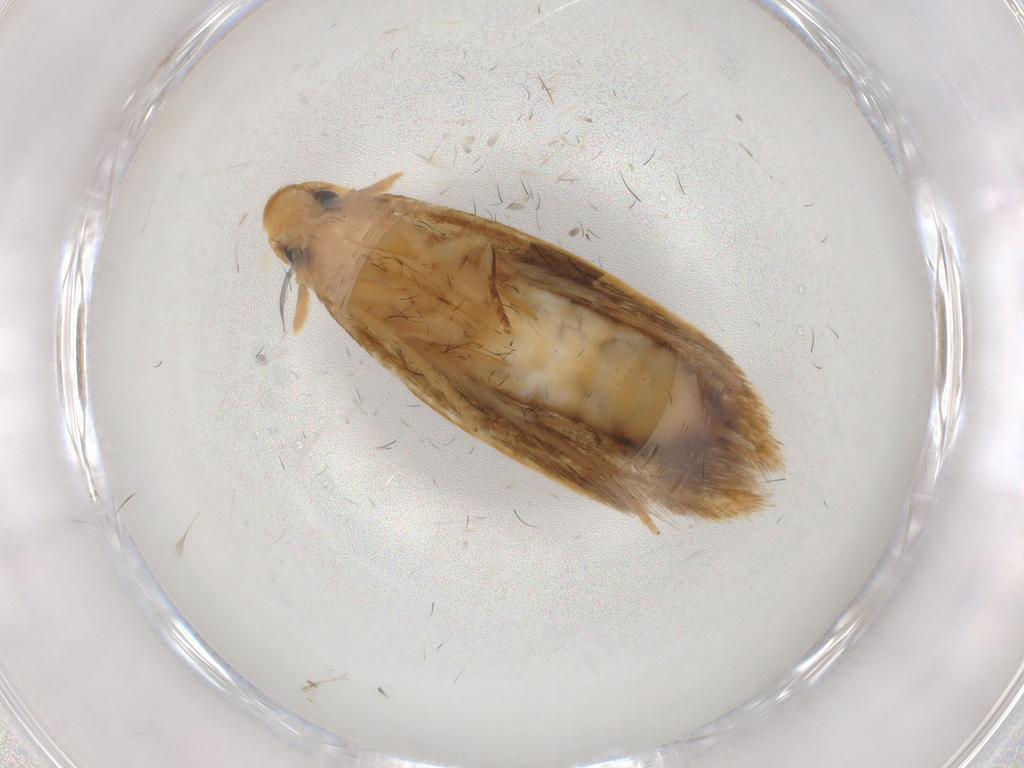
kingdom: Animalia
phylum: Arthropoda
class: Insecta
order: Lepidoptera
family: Tineidae
